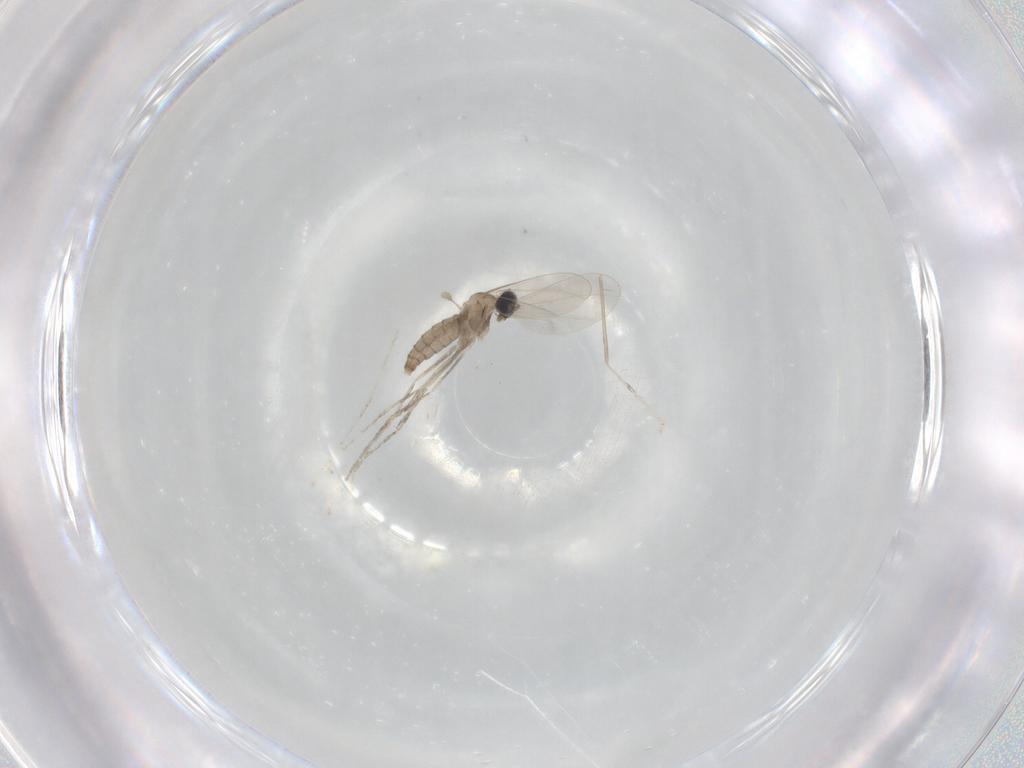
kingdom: Animalia
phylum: Arthropoda
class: Insecta
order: Diptera
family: Cecidomyiidae
